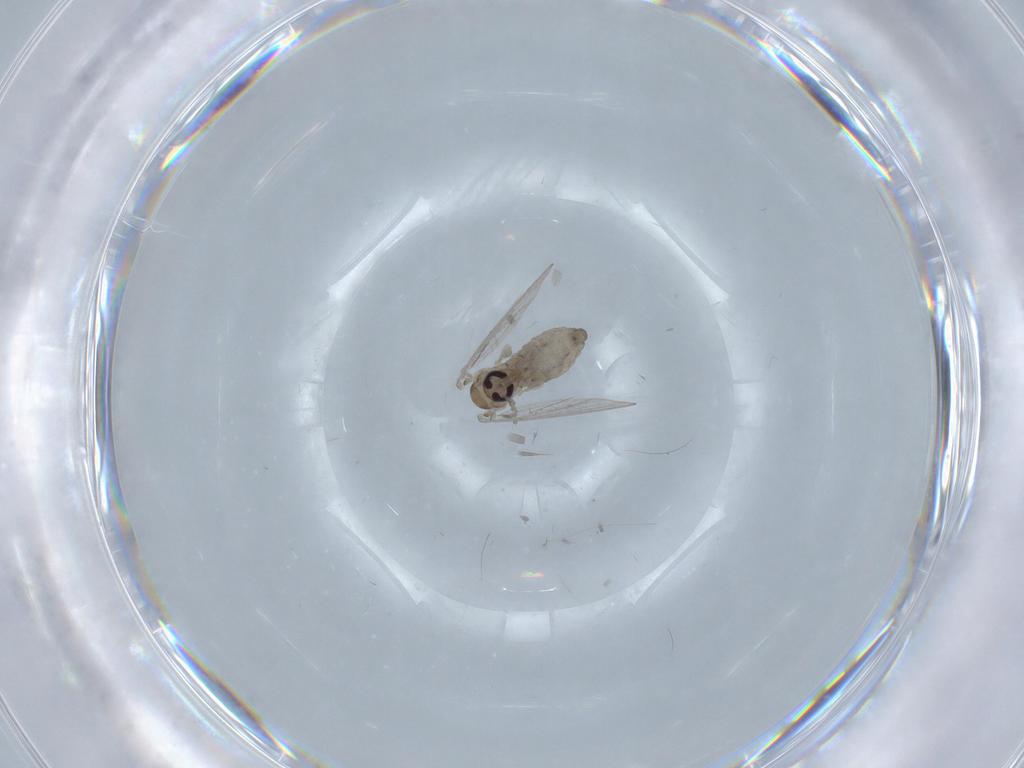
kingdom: Animalia
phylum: Arthropoda
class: Insecta
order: Diptera
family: Psychodidae
